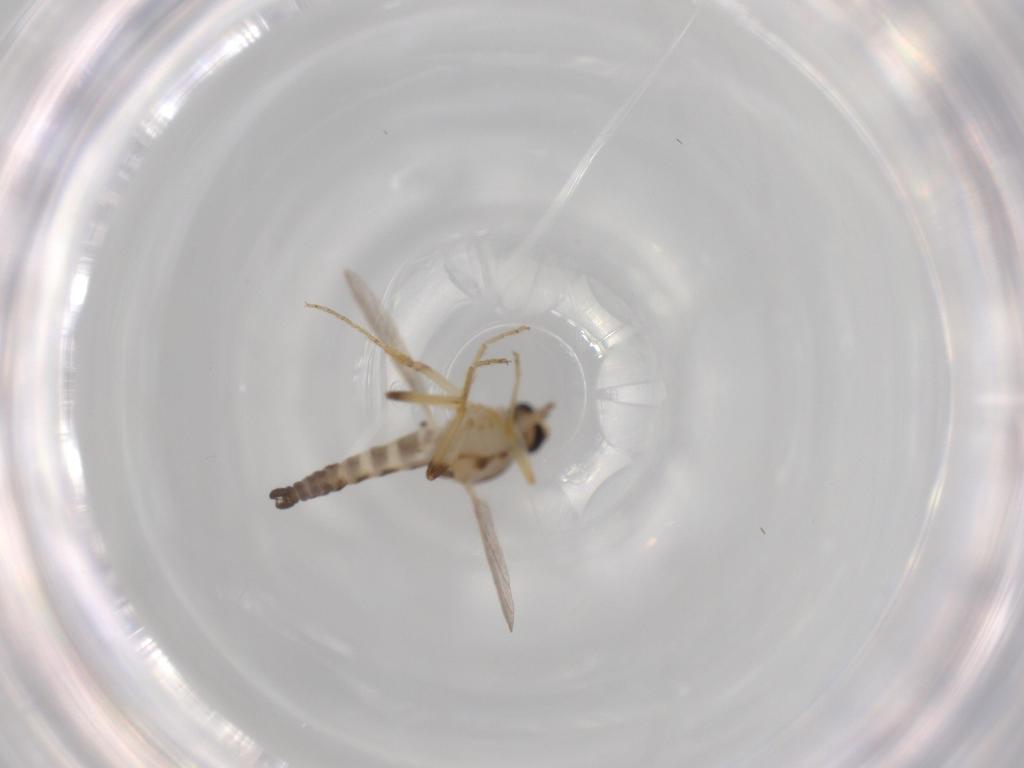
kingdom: Animalia
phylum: Arthropoda
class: Insecta
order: Diptera
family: Ceratopogonidae
